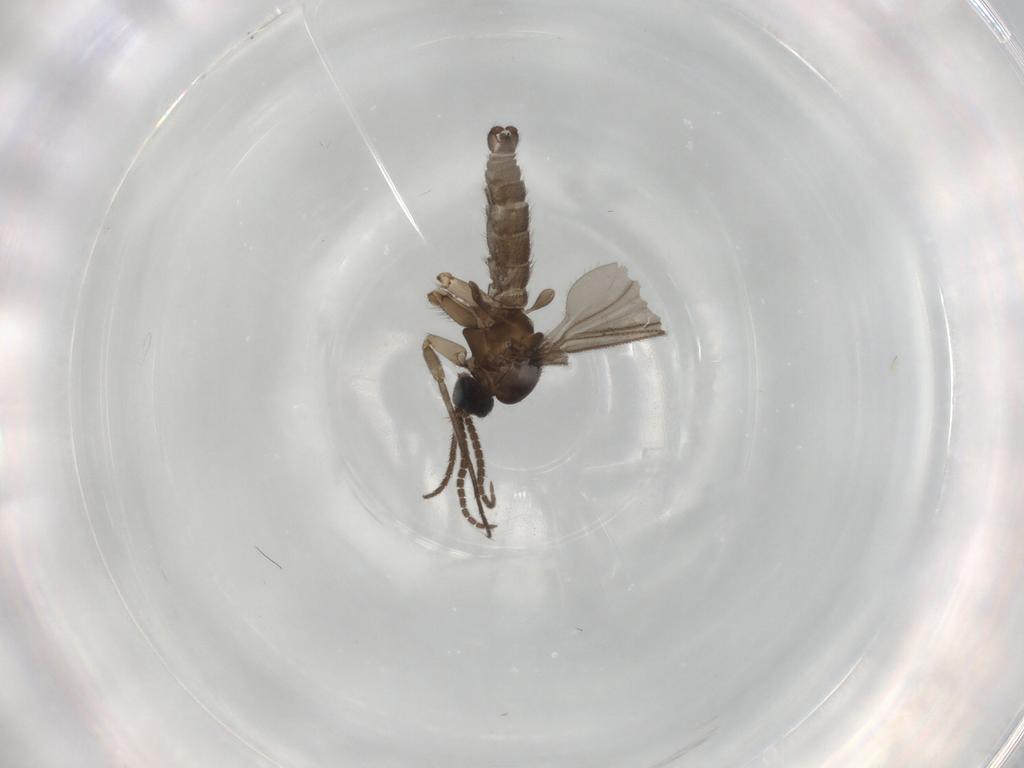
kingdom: Animalia
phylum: Arthropoda
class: Insecta
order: Diptera
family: Sciaridae
